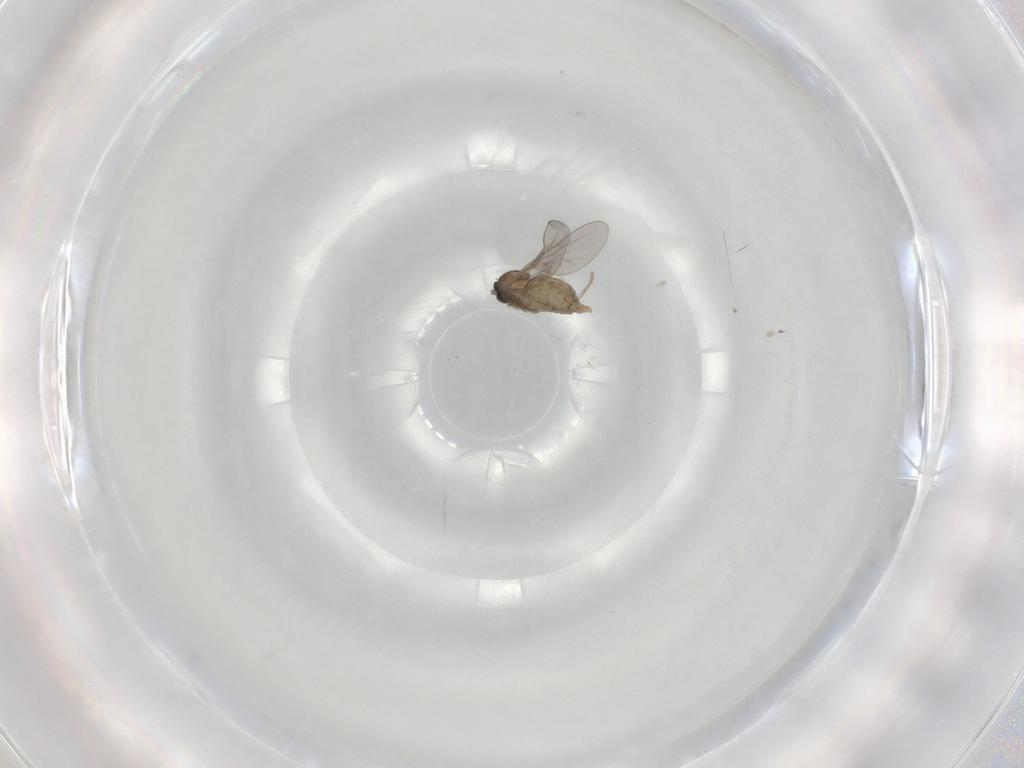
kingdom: Animalia
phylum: Arthropoda
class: Insecta
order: Diptera
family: Cecidomyiidae
